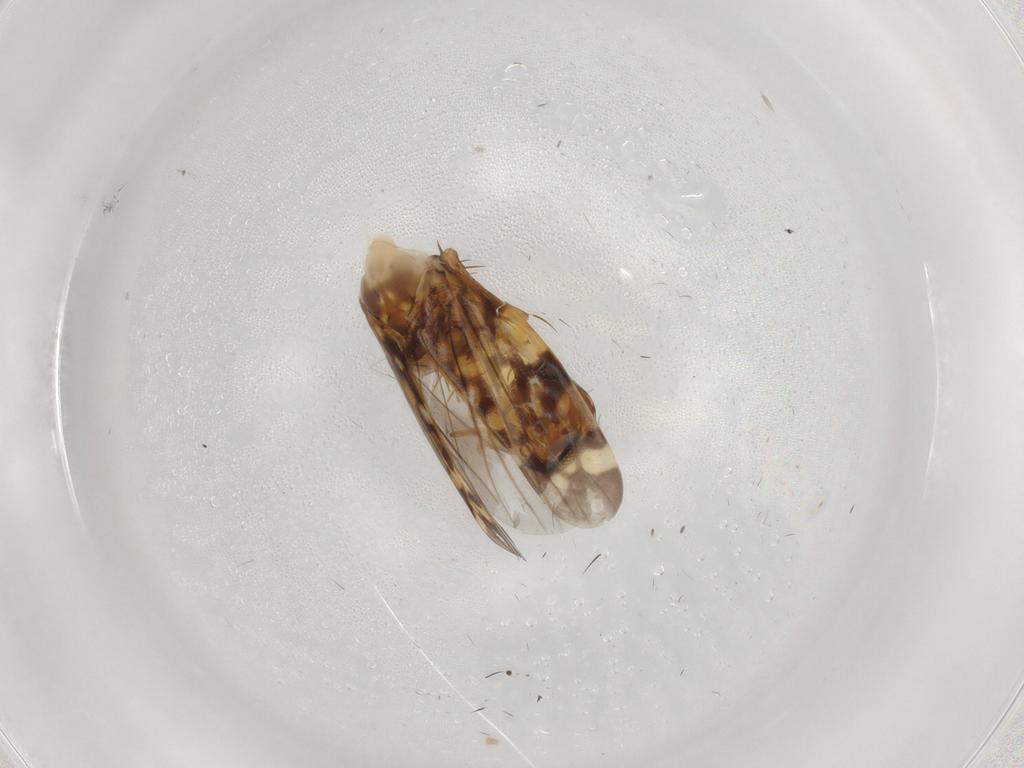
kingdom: Animalia
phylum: Arthropoda
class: Insecta
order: Hemiptera
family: Cicadellidae
